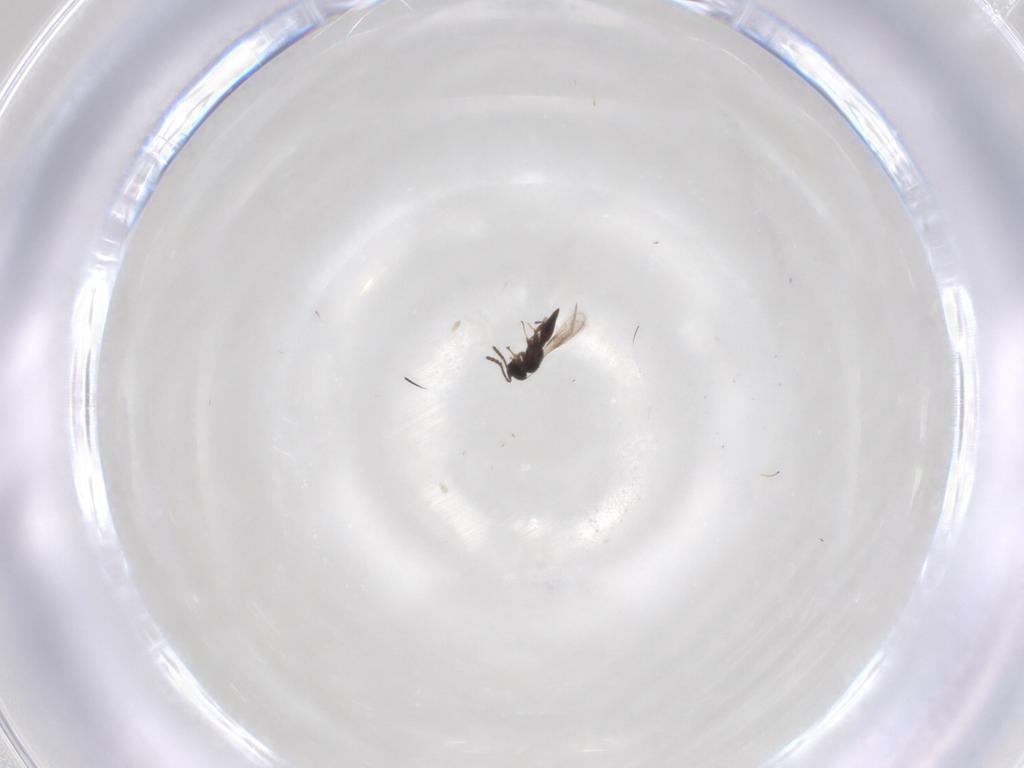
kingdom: Animalia
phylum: Arthropoda
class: Insecta
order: Hymenoptera
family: Scelionidae
